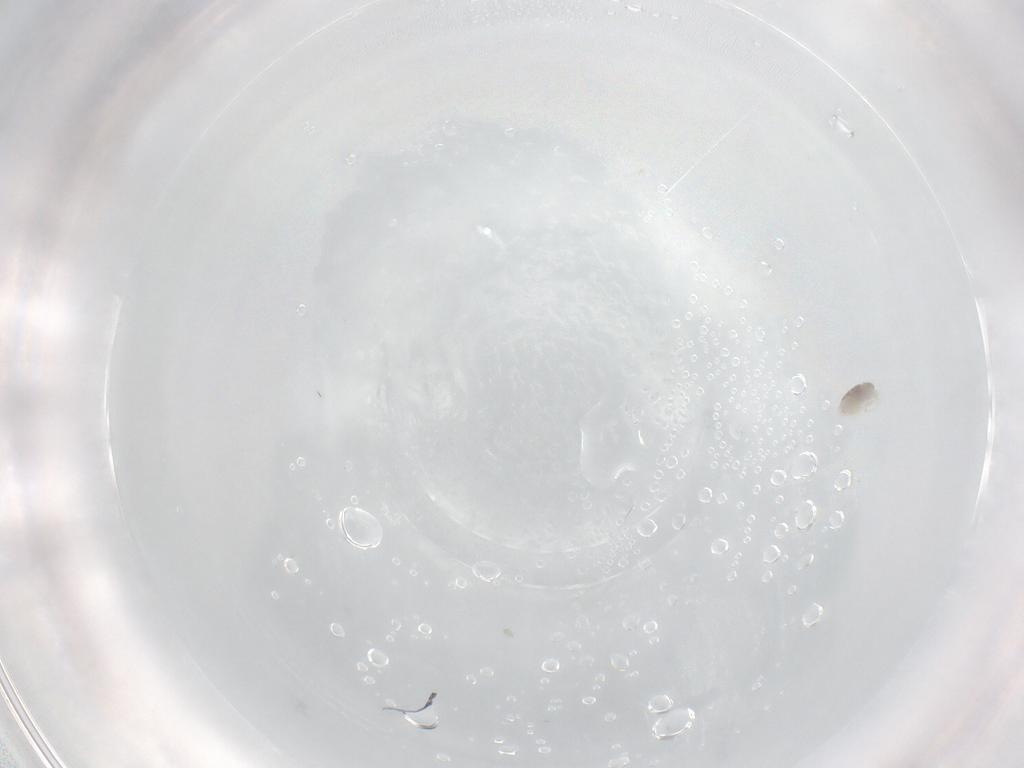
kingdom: Animalia
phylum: Arthropoda
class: Arachnida
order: Trombidiformes
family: Eupodidae
